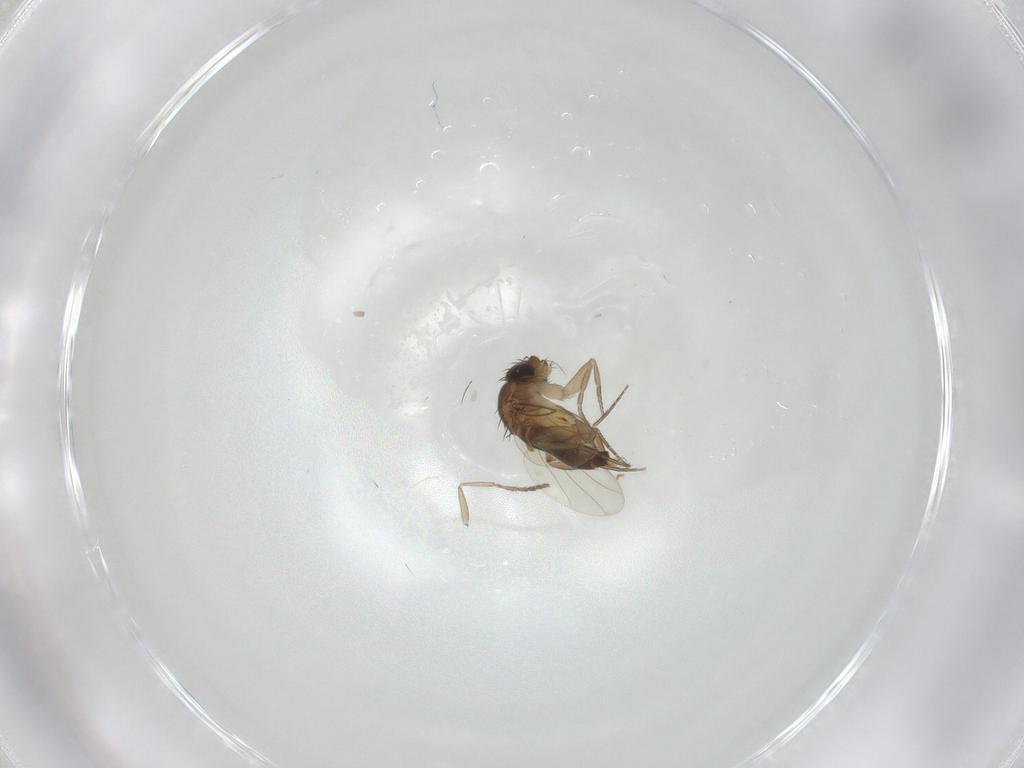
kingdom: Animalia
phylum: Arthropoda
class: Insecta
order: Diptera
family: Phoridae
